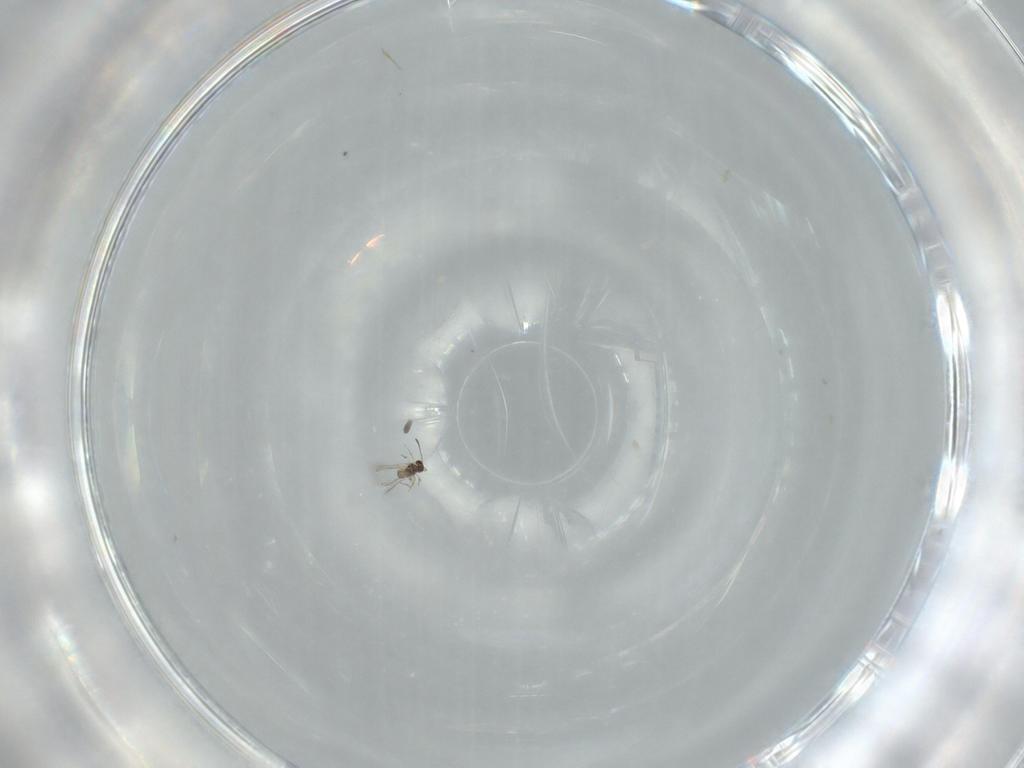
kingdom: Animalia
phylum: Arthropoda
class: Insecta
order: Hymenoptera
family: Mymaridae
